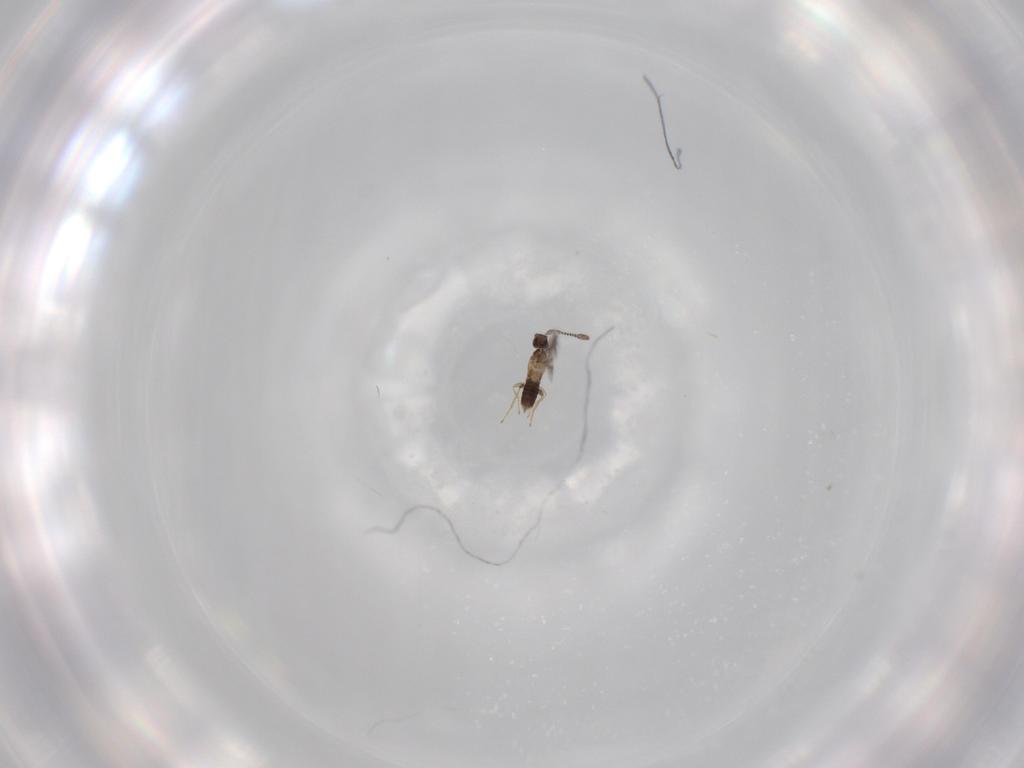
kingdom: Animalia
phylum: Arthropoda
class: Insecta
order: Hymenoptera
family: Mymaridae
